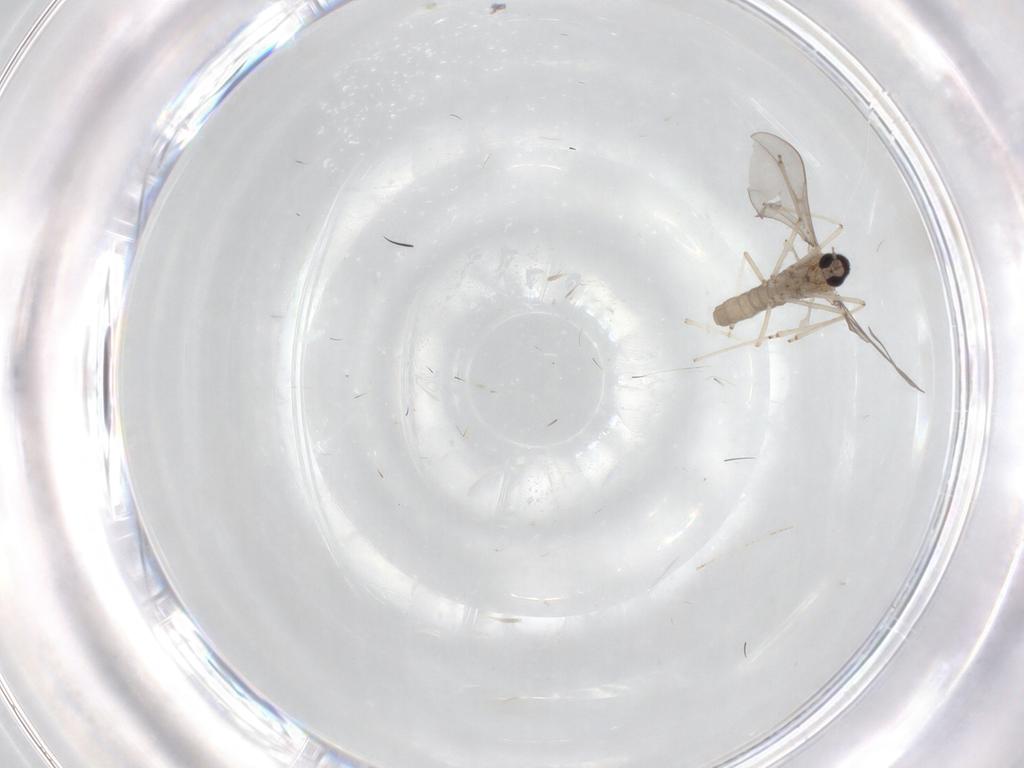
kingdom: Animalia
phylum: Arthropoda
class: Insecta
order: Diptera
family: Cecidomyiidae
